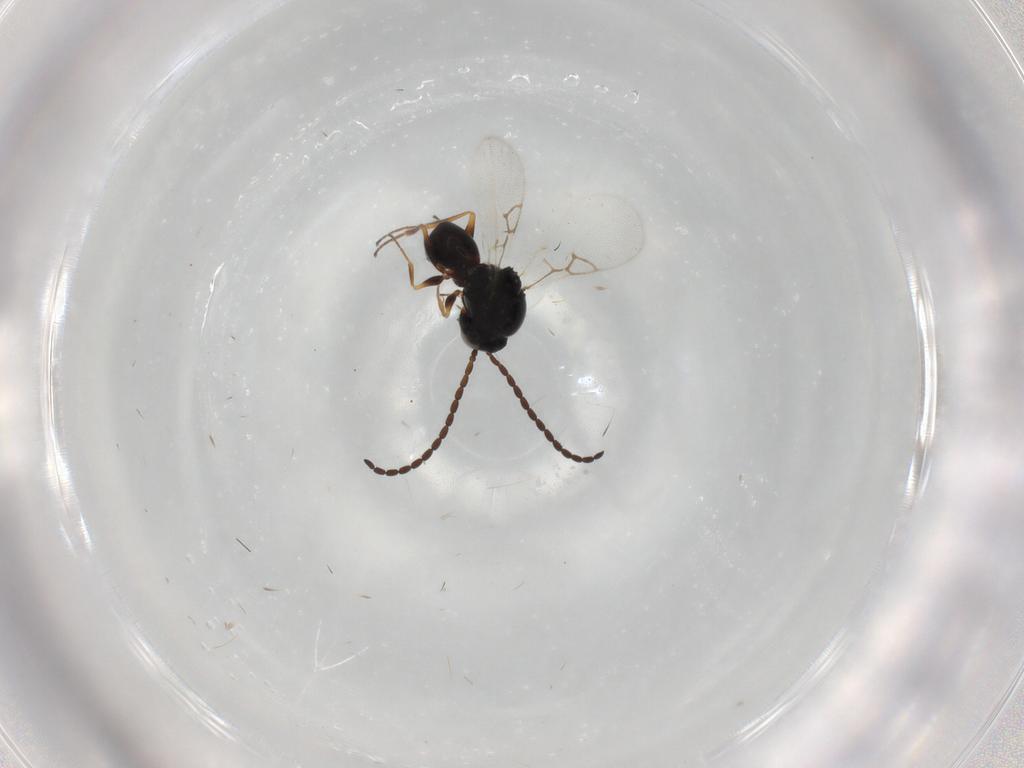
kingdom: Animalia
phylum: Arthropoda
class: Insecta
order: Hymenoptera
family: Figitidae
